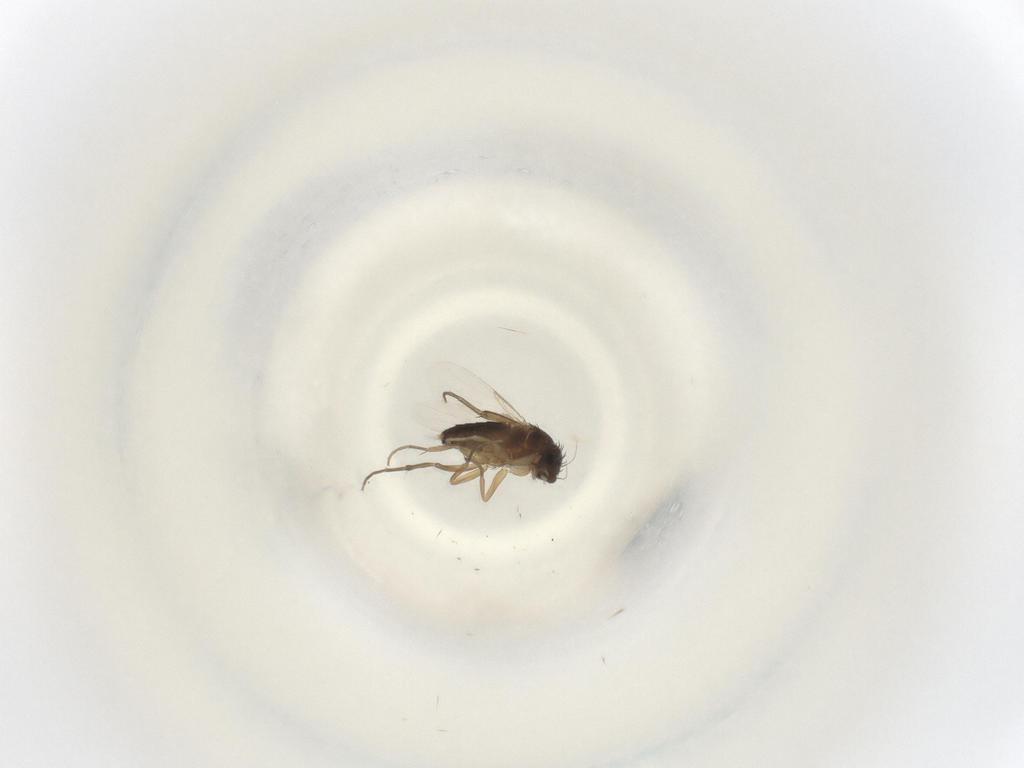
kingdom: Animalia
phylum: Arthropoda
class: Insecta
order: Diptera
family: Phoridae
